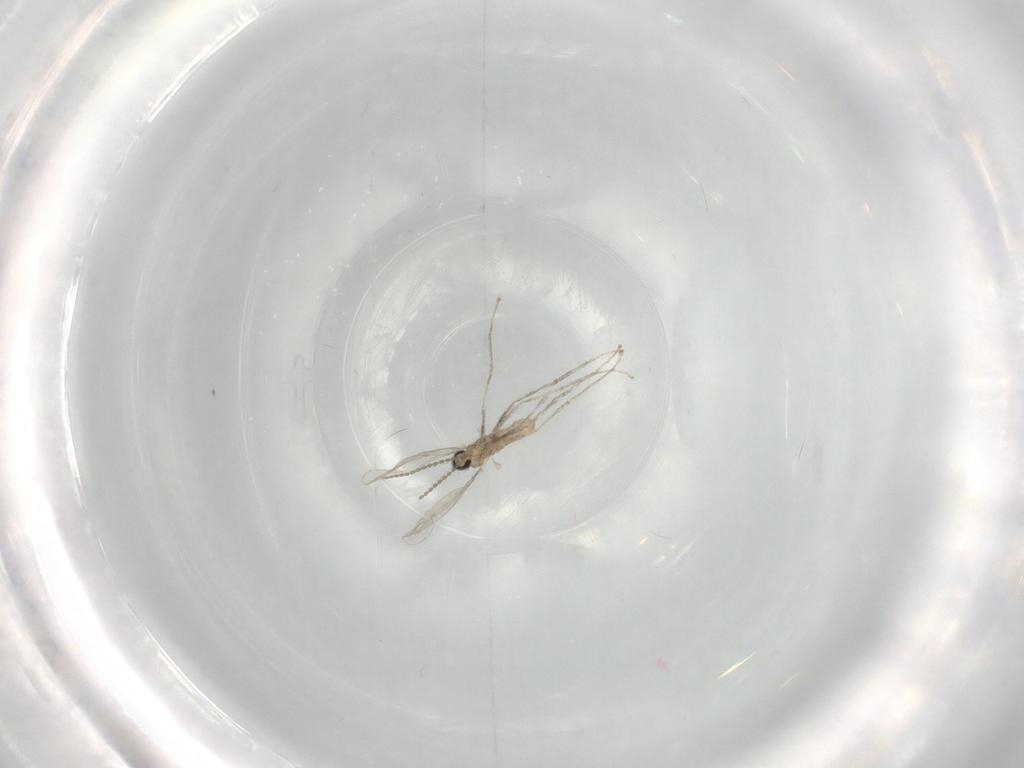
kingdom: Animalia
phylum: Arthropoda
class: Insecta
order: Diptera
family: Cecidomyiidae
